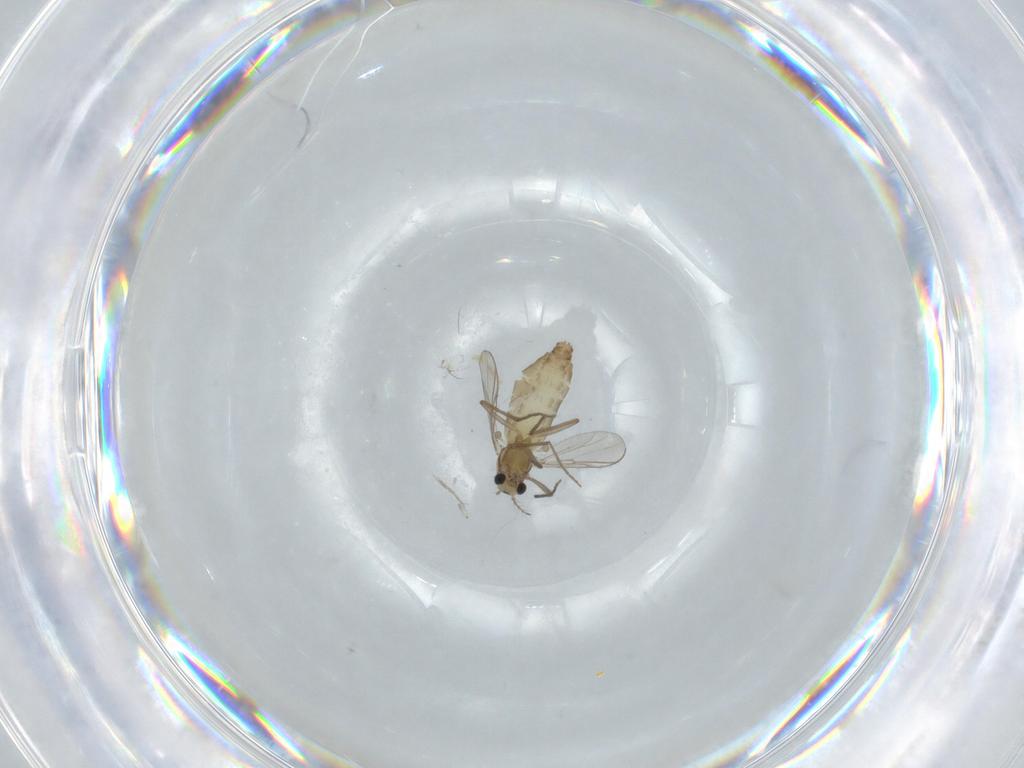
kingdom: Animalia
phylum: Arthropoda
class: Insecta
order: Diptera
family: Chironomidae
